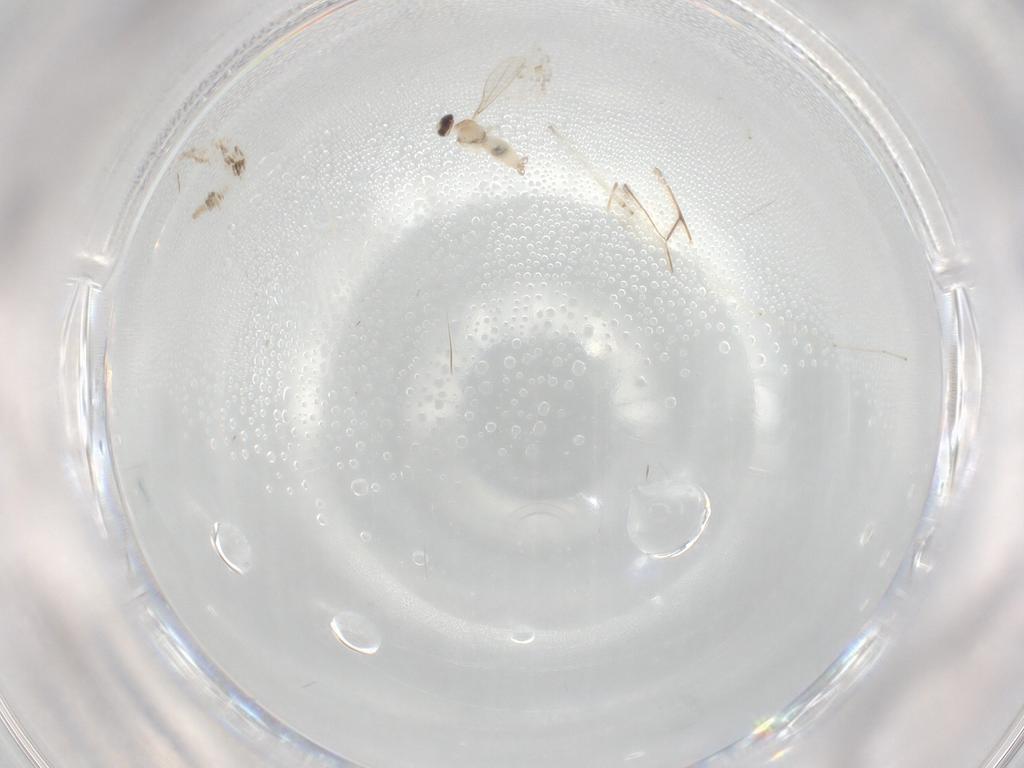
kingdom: Animalia
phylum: Arthropoda
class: Insecta
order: Diptera
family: Cecidomyiidae
